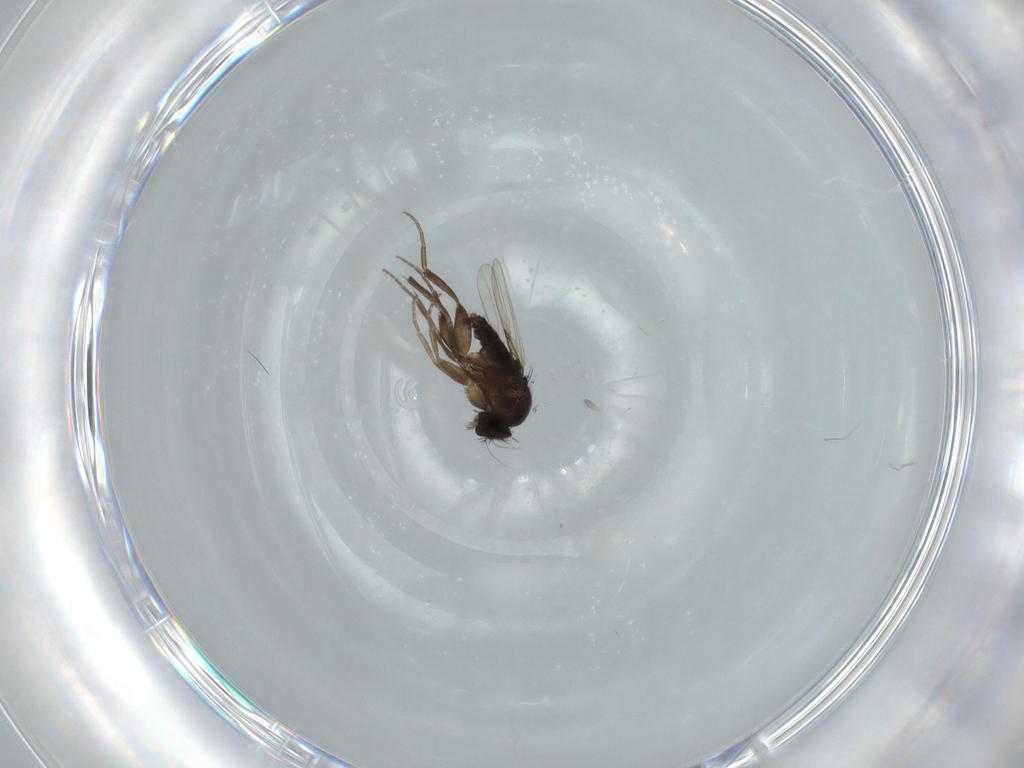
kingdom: Animalia
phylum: Arthropoda
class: Insecta
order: Diptera
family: Phoridae
